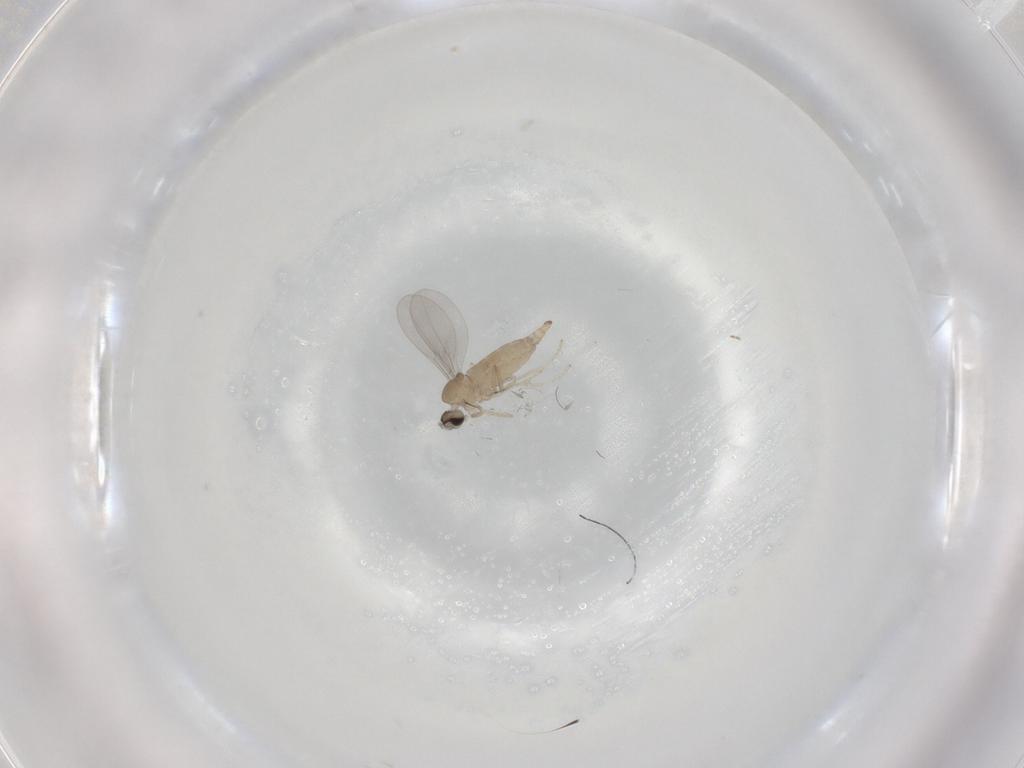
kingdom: Animalia
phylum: Arthropoda
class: Insecta
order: Diptera
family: Cecidomyiidae
